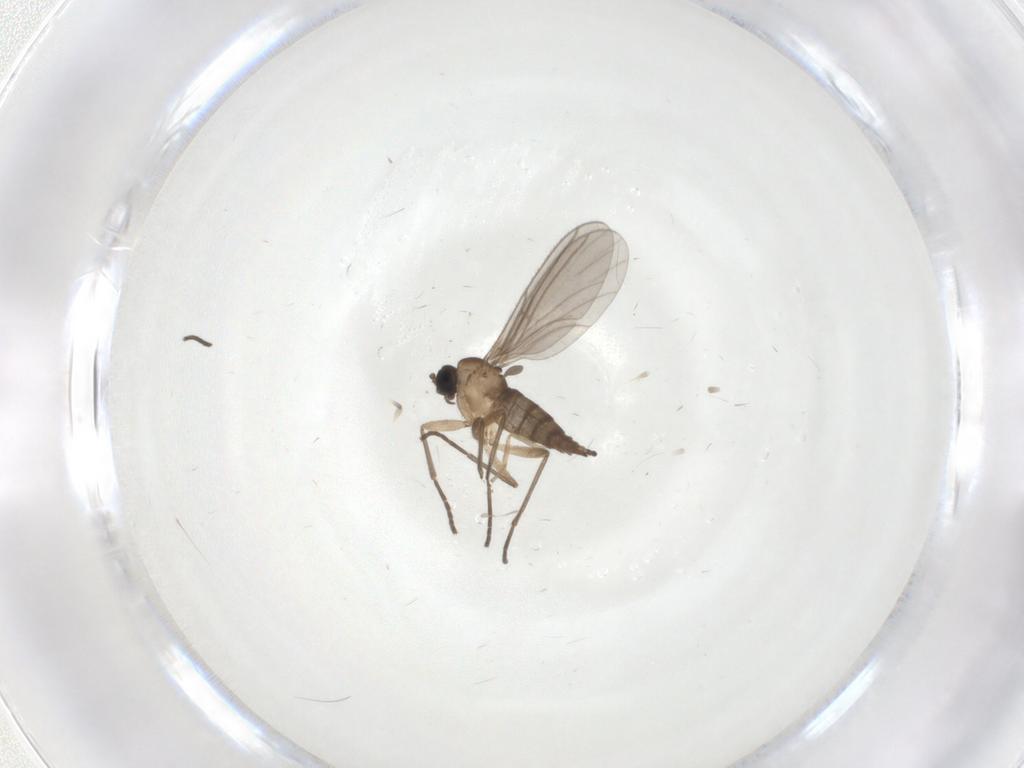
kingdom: Animalia
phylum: Arthropoda
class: Insecta
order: Diptera
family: Sciaridae
